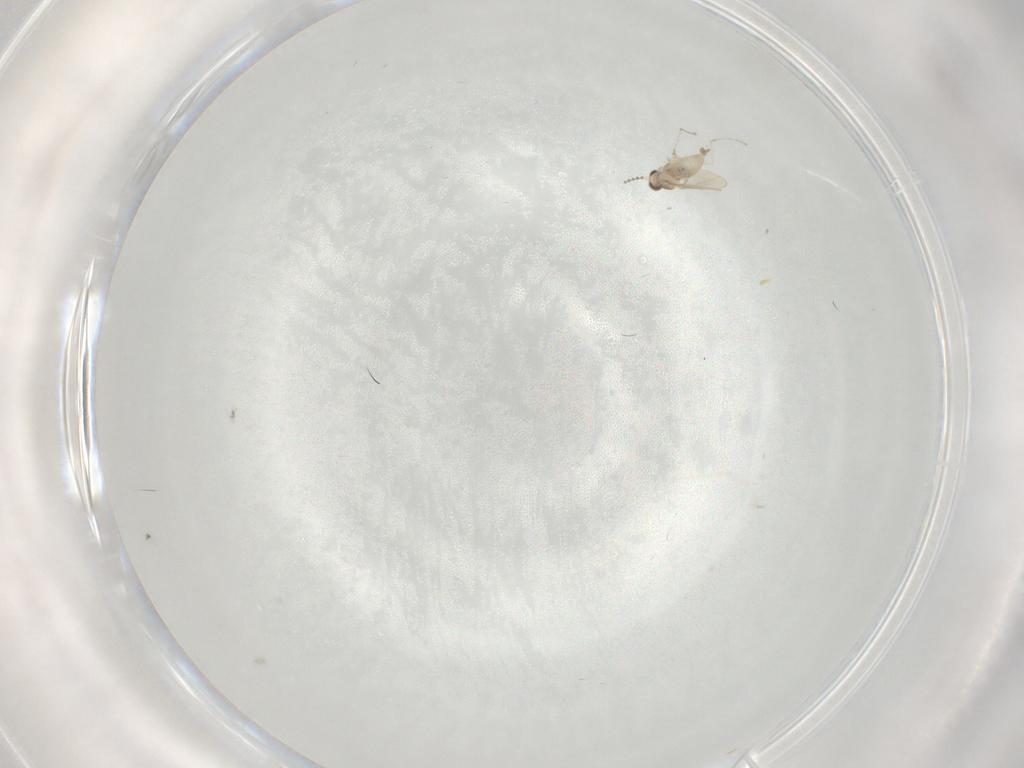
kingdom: Animalia
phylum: Arthropoda
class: Insecta
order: Diptera
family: Cecidomyiidae
